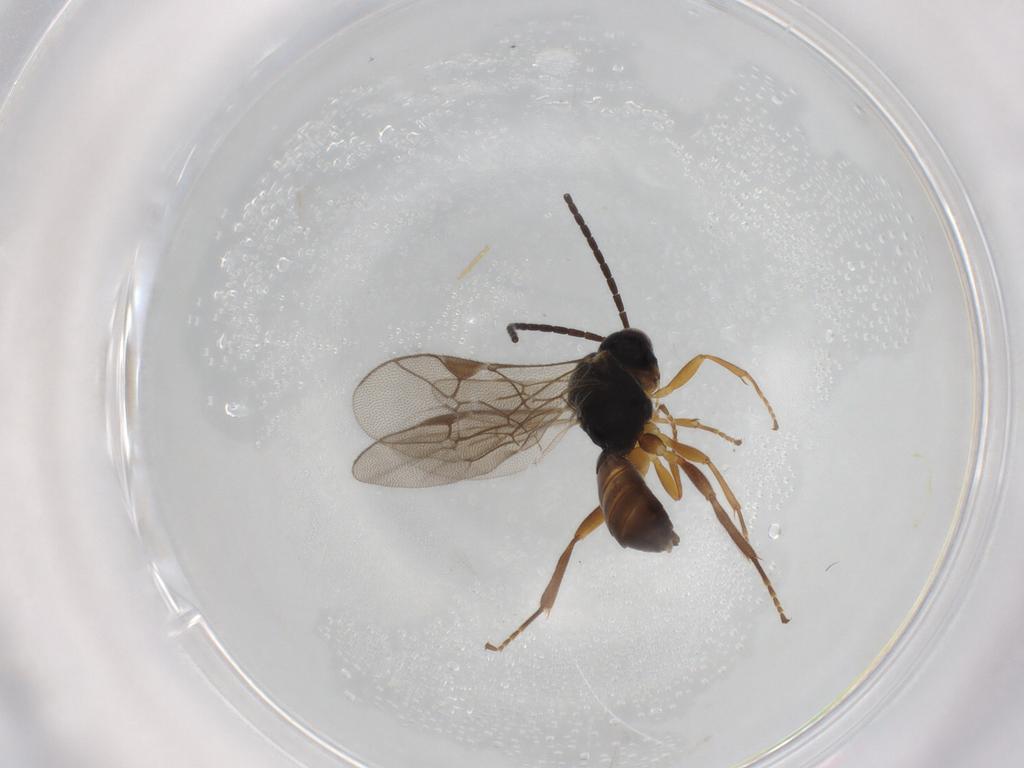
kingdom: Animalia
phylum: Arthropoda
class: Insecta
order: Hymenoptera
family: Ichneumonidae
